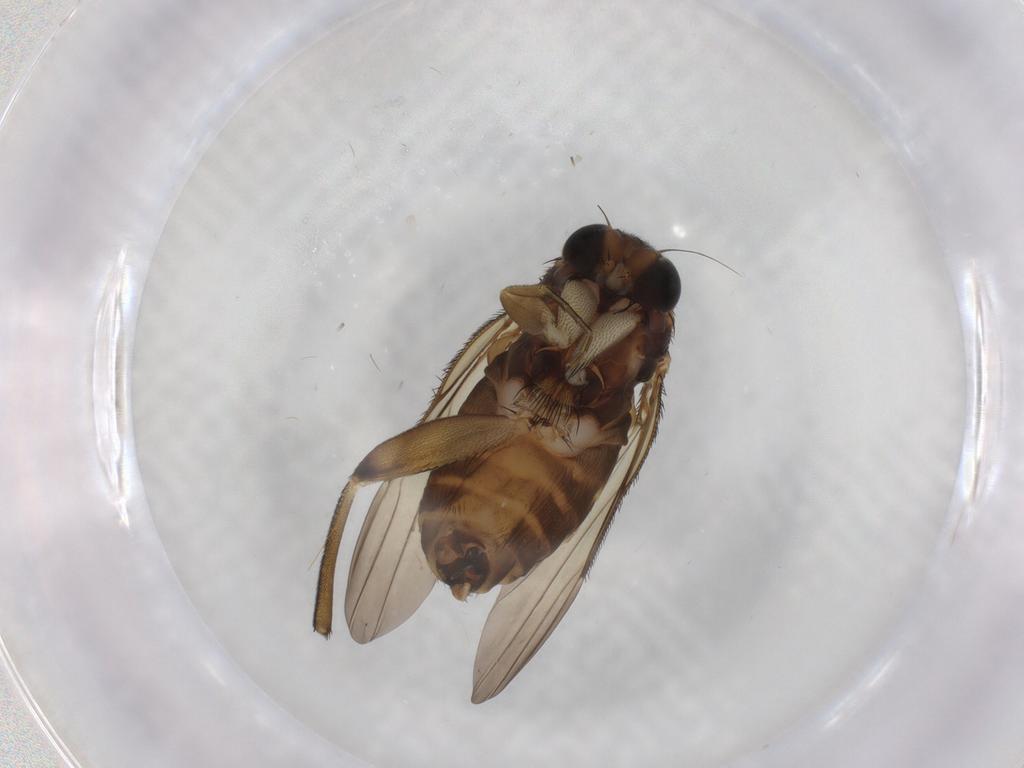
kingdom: Animalia
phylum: Arthropoda
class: Insecta
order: Diptera
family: Phoridae
